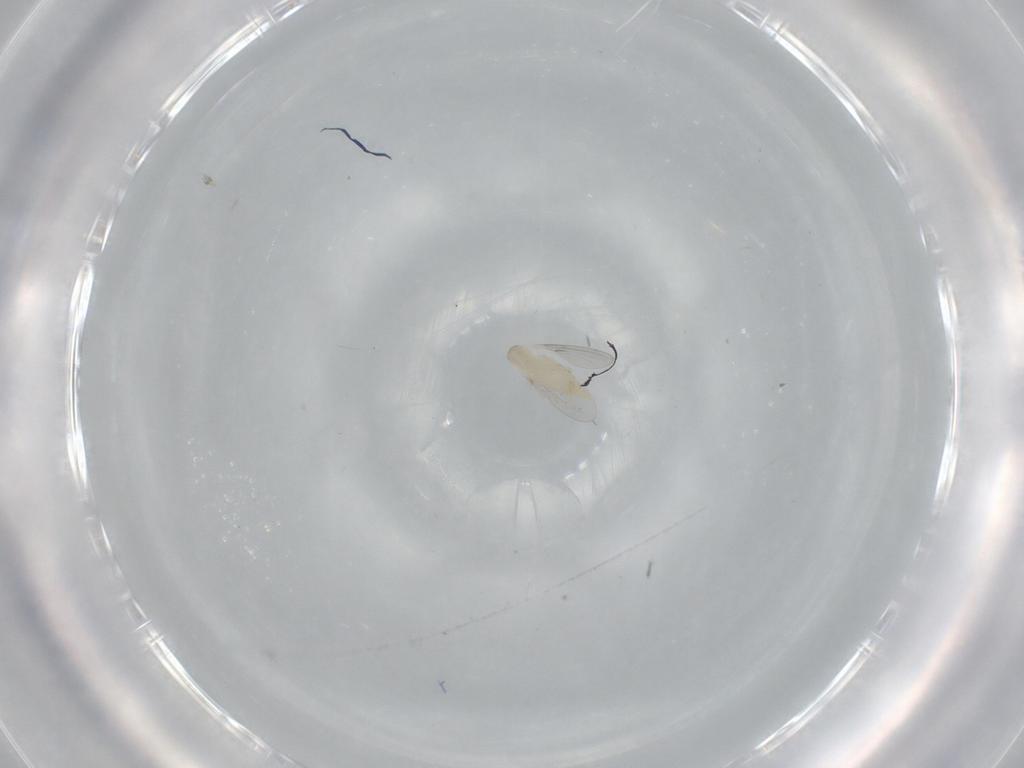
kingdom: Animalia
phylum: Arthropoda
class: Insecta
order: Diptera
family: Cecidomyiidae
